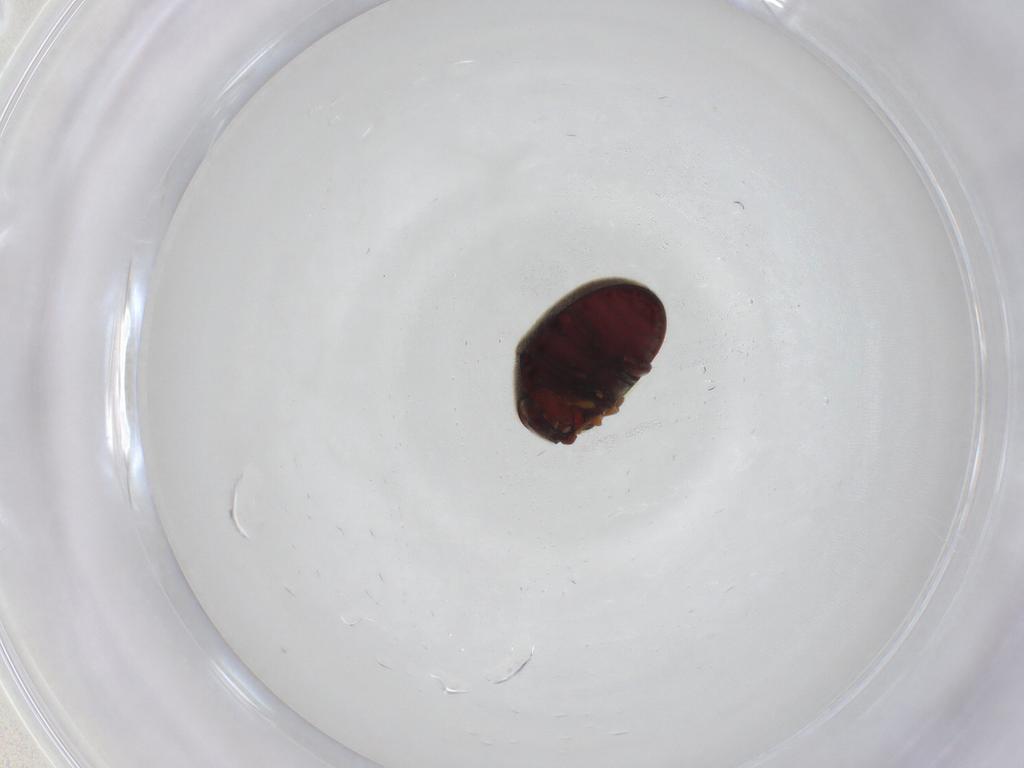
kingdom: Animalia
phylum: Arthropoda
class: Insecta
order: Coleoptera
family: Ptinidae
